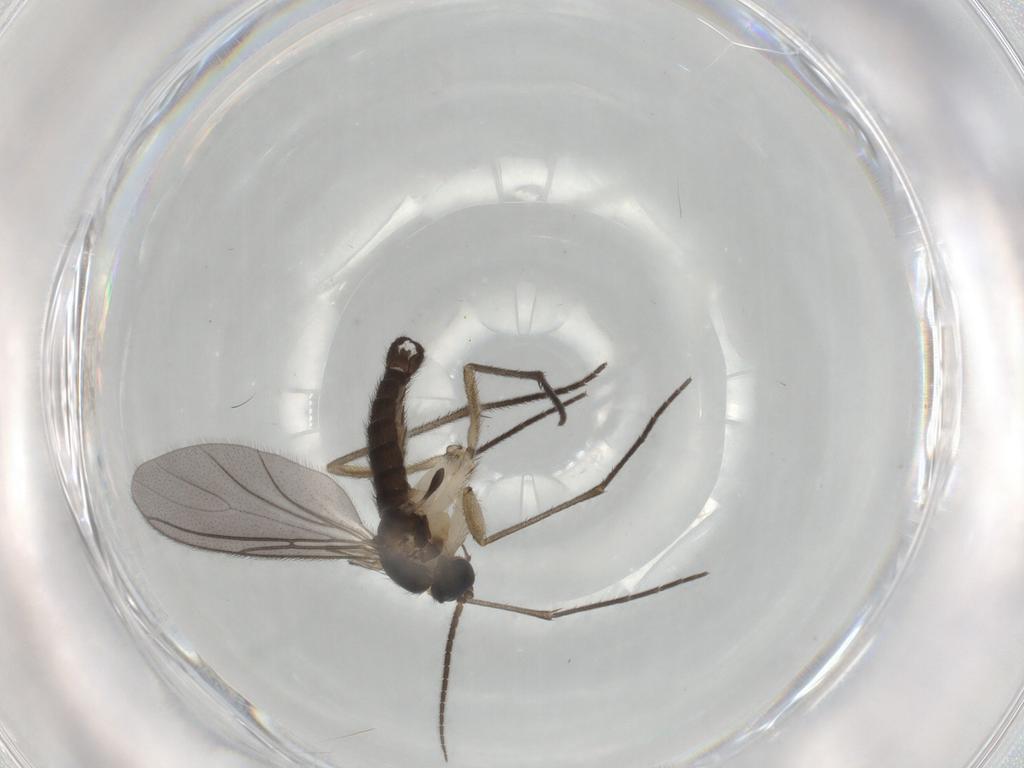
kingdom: Animalia
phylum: Arthropoda
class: Insecta
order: Diptera
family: Sciaridae
